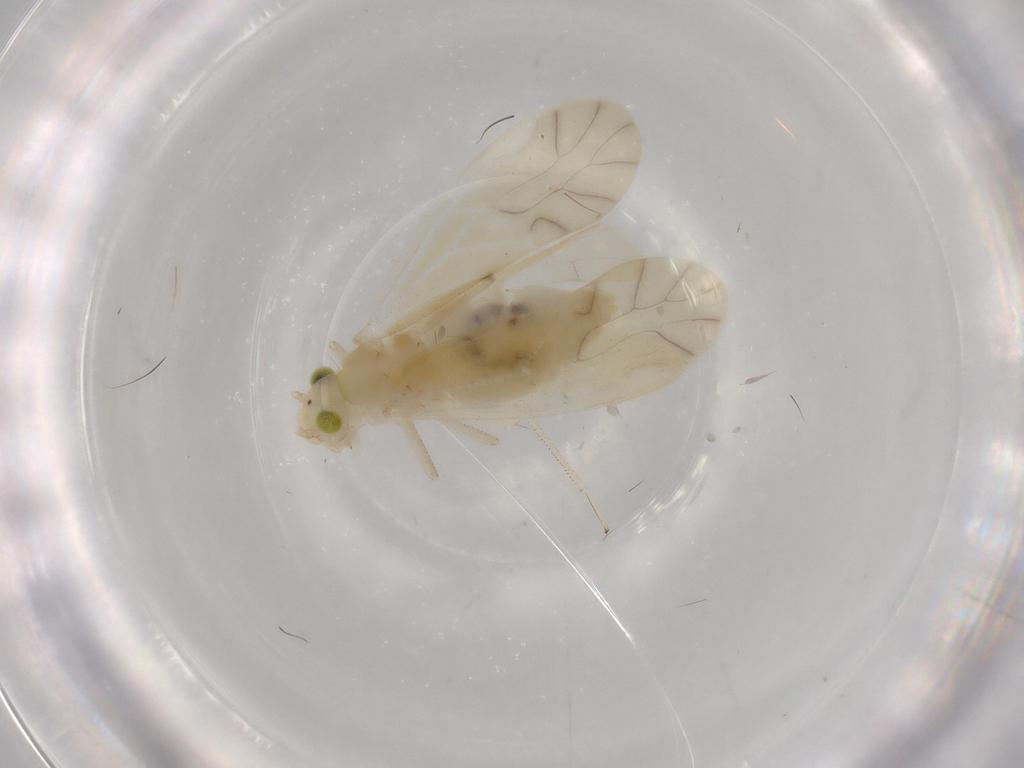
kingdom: Animalia
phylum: Arthropoda
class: Insecta
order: Psocodea
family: Caeciliusidae
